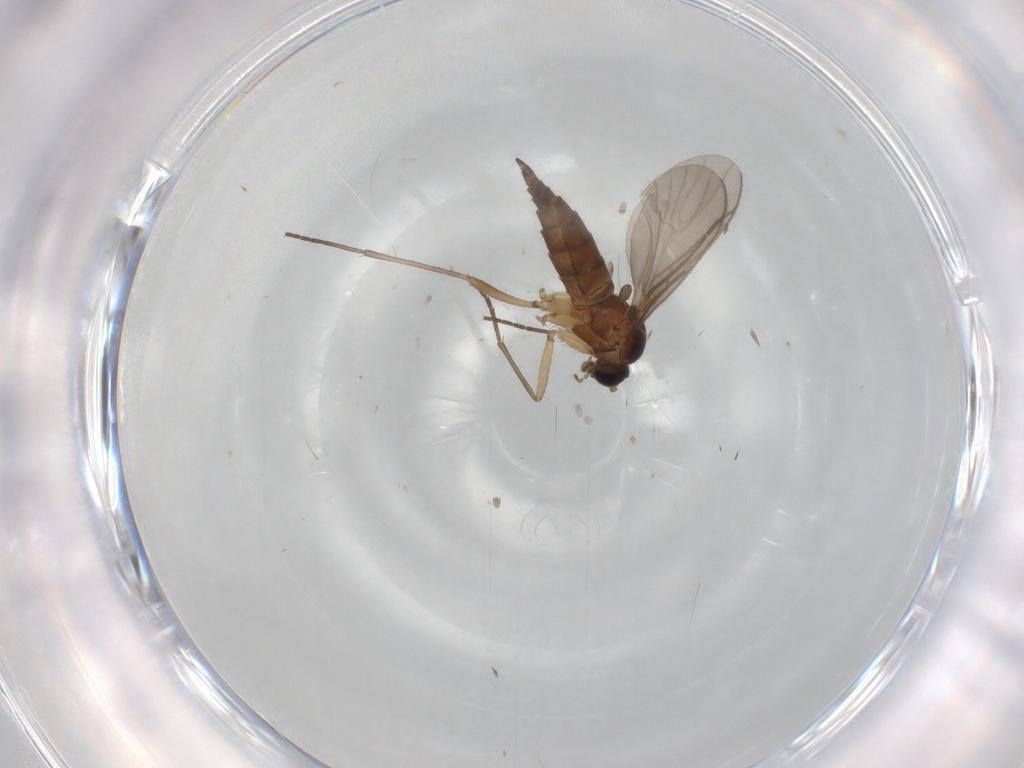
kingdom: Animalia
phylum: Arthropoda
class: Insecta
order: Diptera
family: Sciaridae
